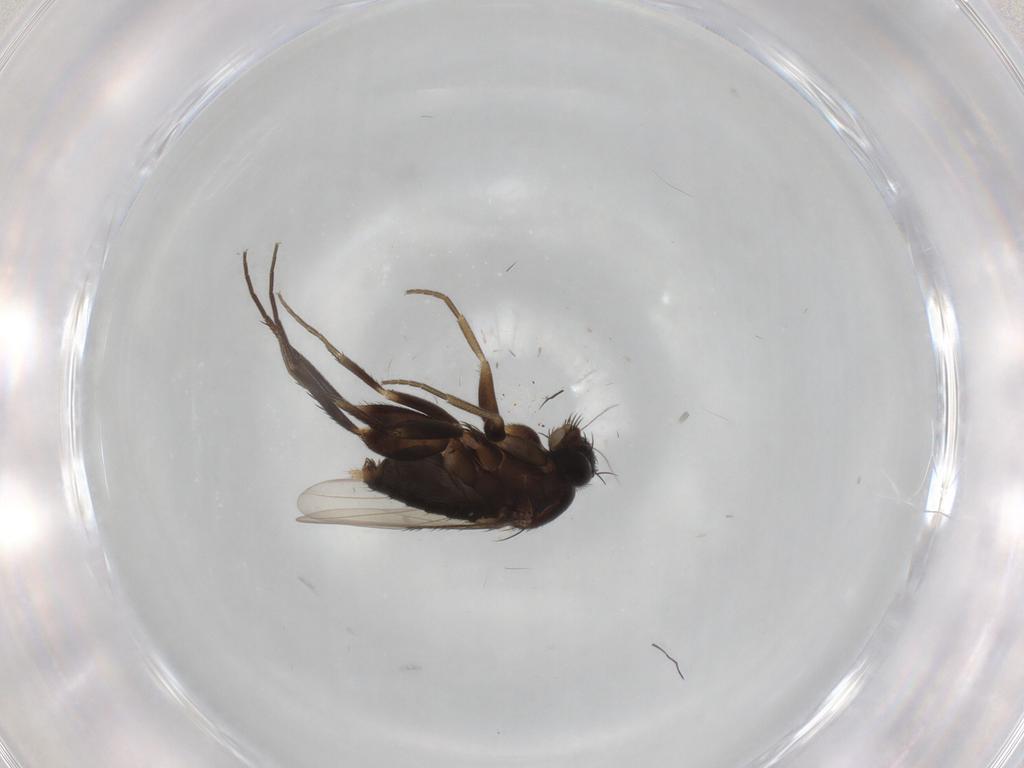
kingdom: Animalia
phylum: Arthropoda
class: Insecta
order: Diptera
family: Phoridae
